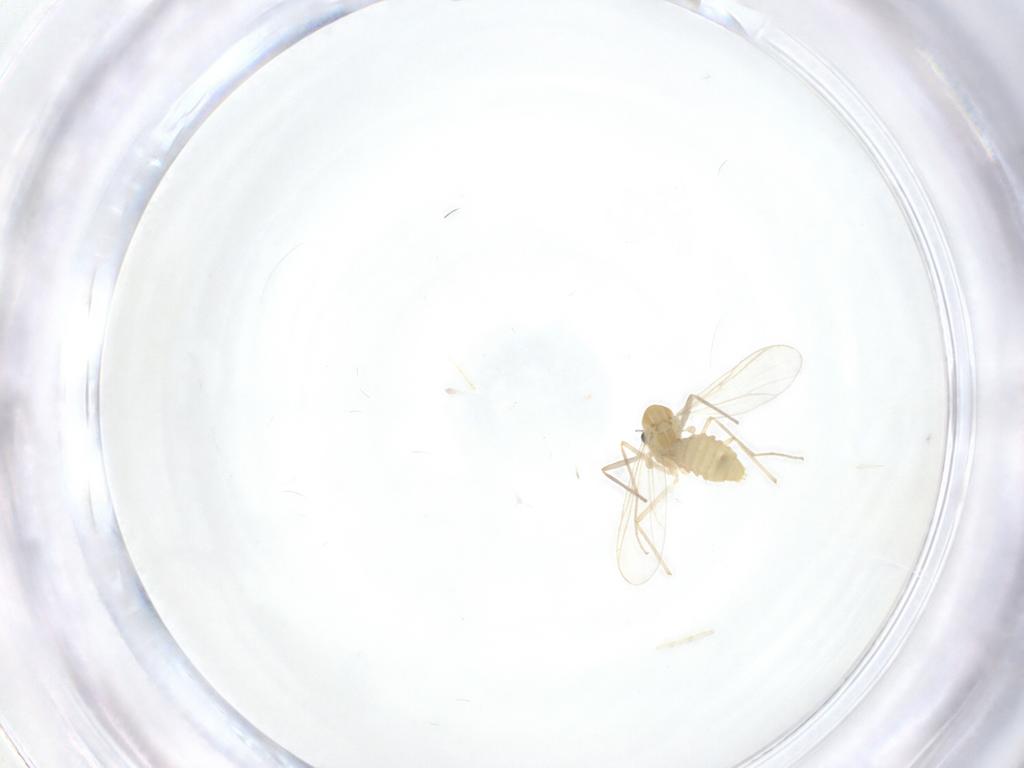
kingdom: Animalia
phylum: Arthropoda
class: Insecta
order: Diptera
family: Chironomidae
